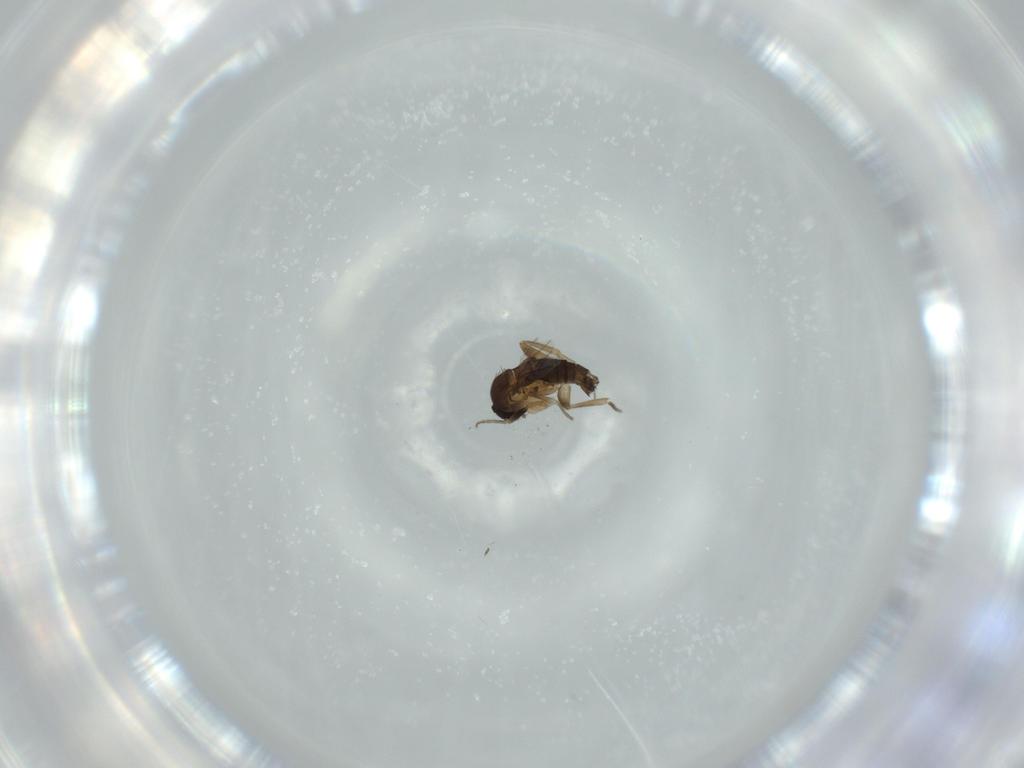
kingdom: Animalia
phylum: Arthropoda
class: Insecta
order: Diptera
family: Phoridae
